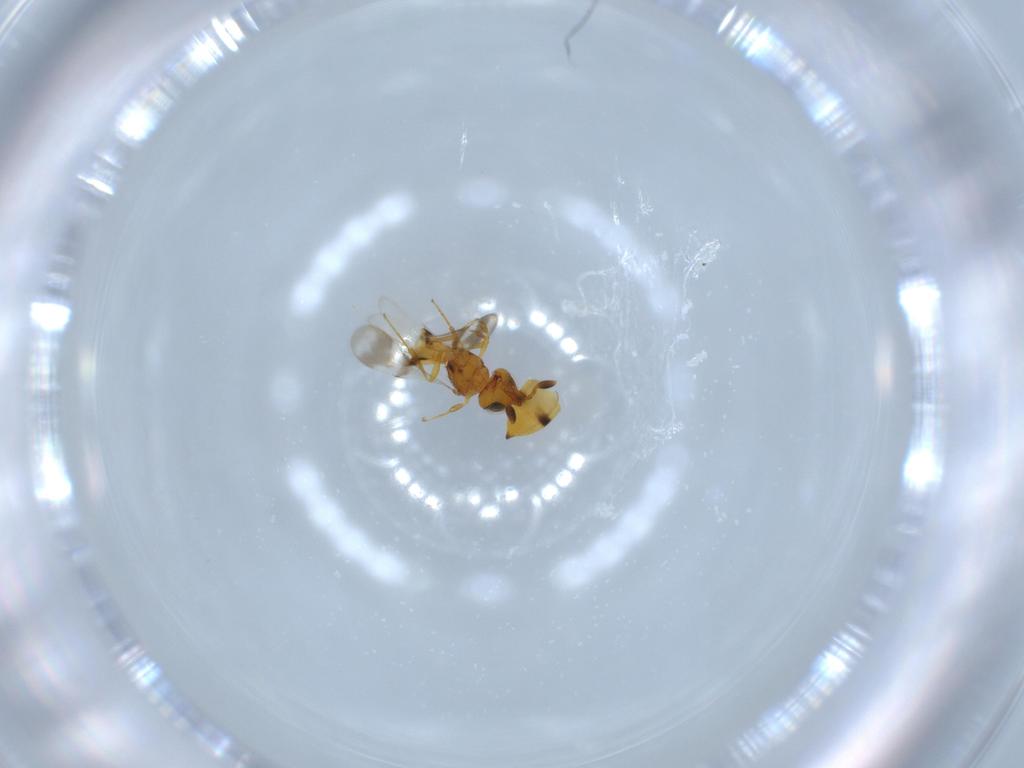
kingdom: Animalia
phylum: Arthropoda
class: Insecta
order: Hymenoptera
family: Scelionidae
